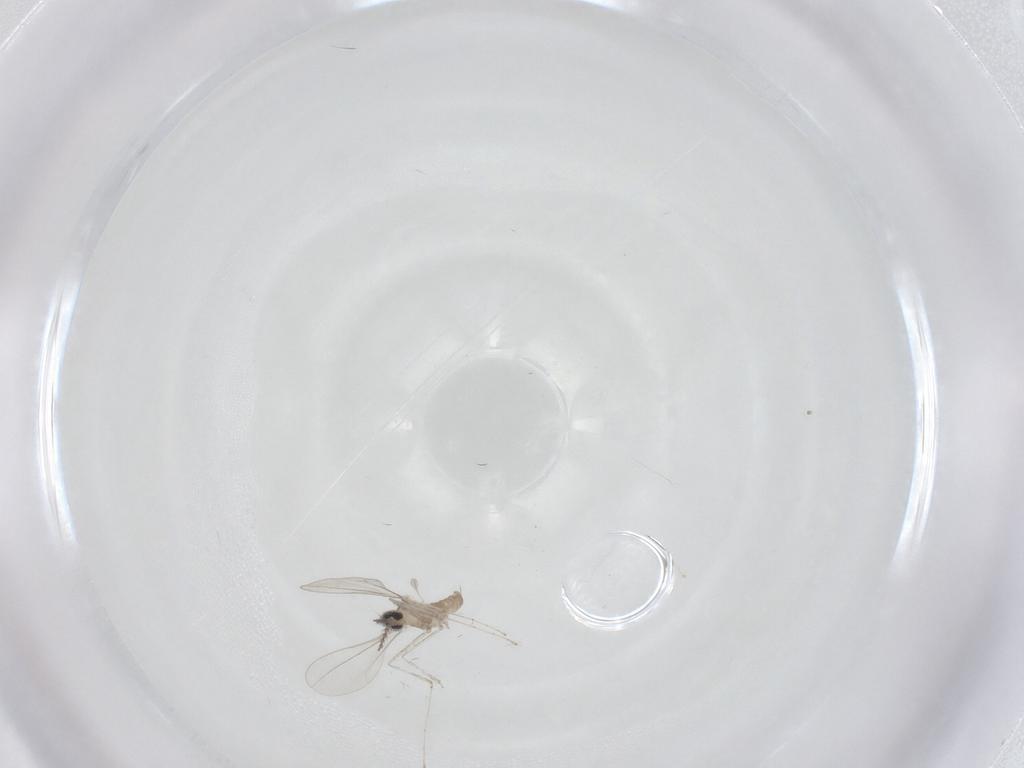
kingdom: Animalia
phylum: Arthropoda
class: Insecta
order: Diptera
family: Cecidomyiidae
